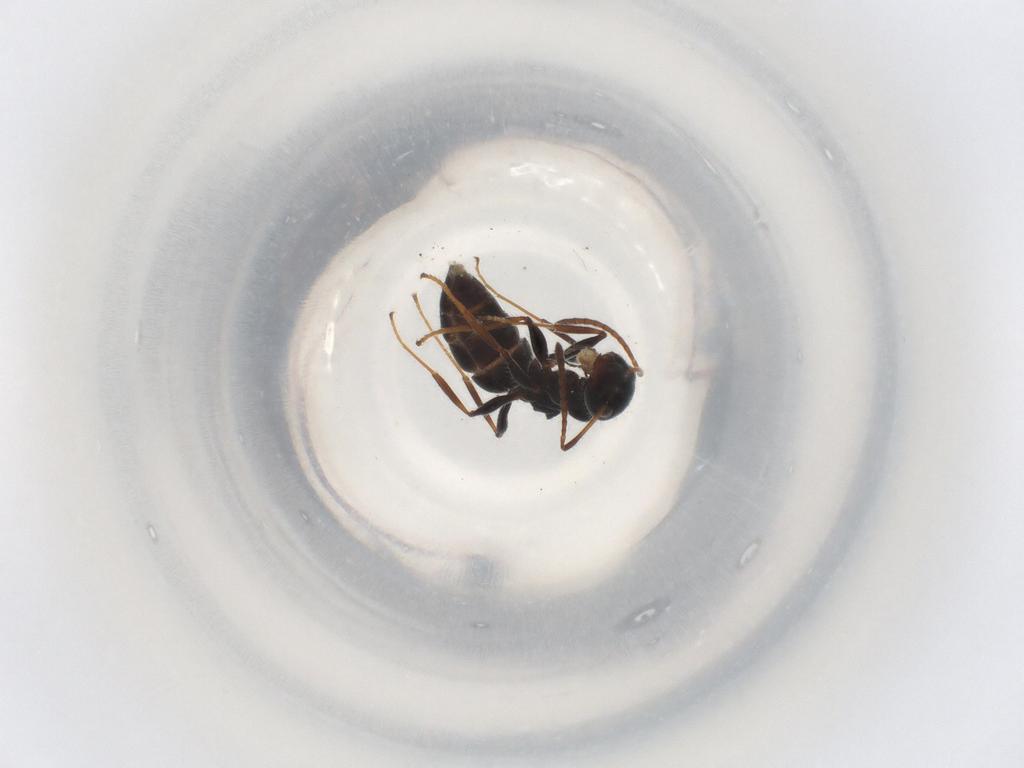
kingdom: Animalia
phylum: Arthropoda
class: Insecta
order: Hymenoptera
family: Formicidae
